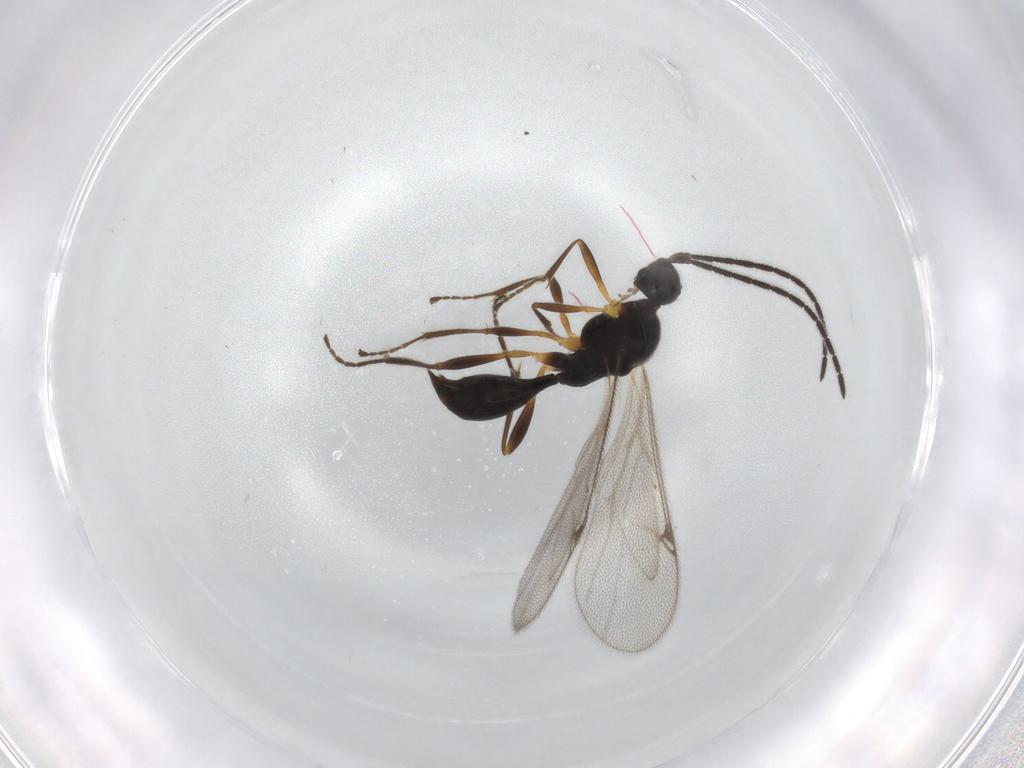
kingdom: Animalia
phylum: Arthropoda
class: Insecta
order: Hymenoptera
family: Proctotrupidae
